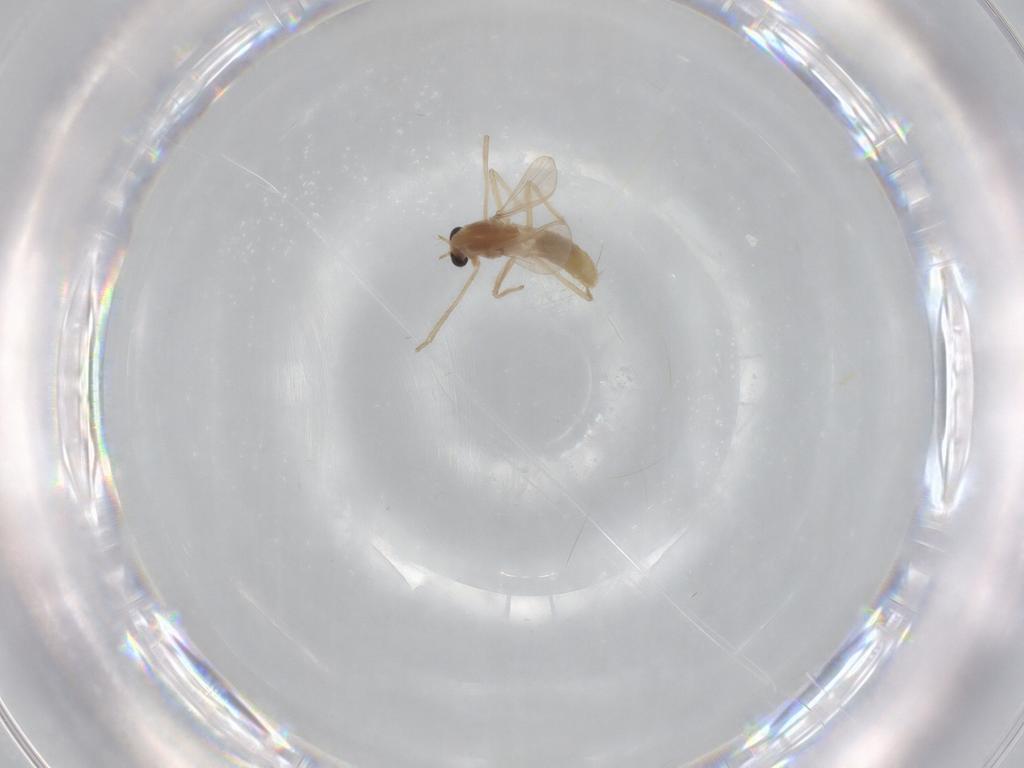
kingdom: Animalia
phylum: Arthropoda
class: Insecta
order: Diptera
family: Chironomidae
